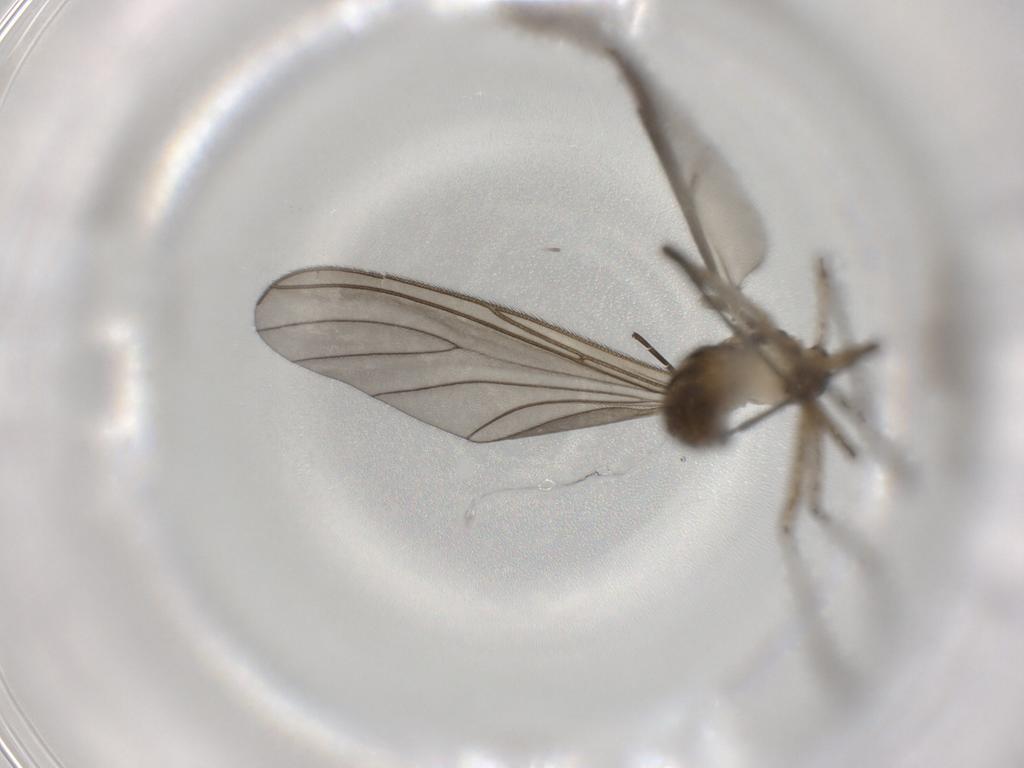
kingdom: Animalia
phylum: Arthropoda
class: Insecta
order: Diptera
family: Sciaridae
